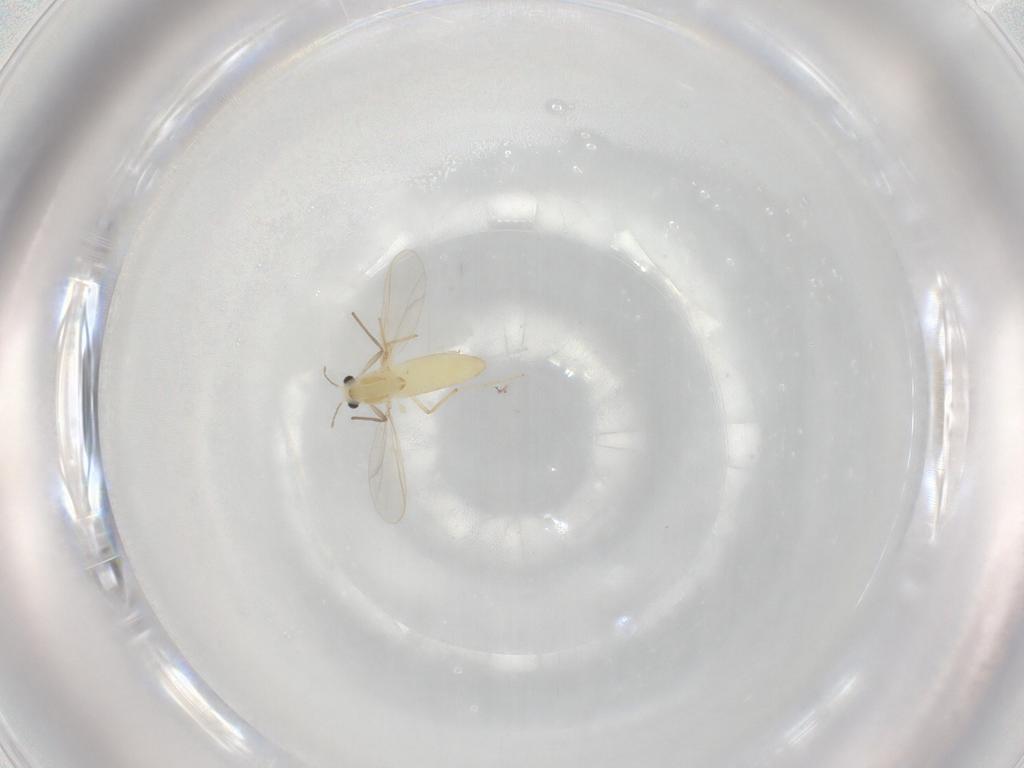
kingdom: Animalia
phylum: Arthropoda
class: Insecta
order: Diptera
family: Chironomidae
